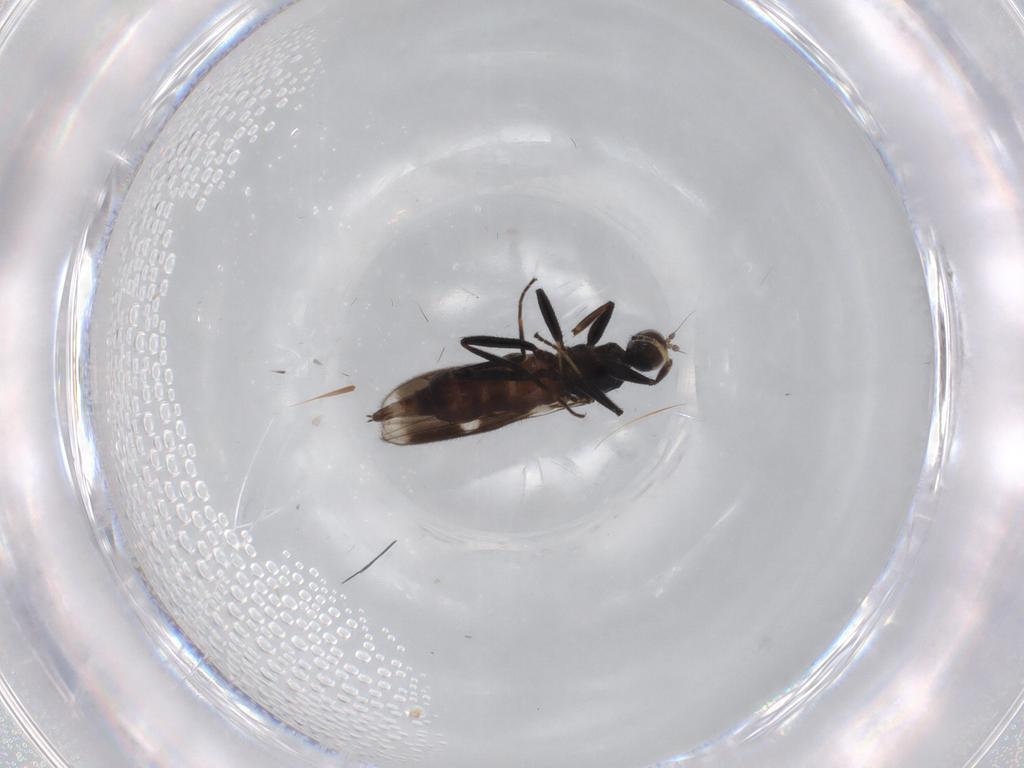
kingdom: Animalia
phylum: Arthropoda
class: Insecta
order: Diptera
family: Hybotidae
